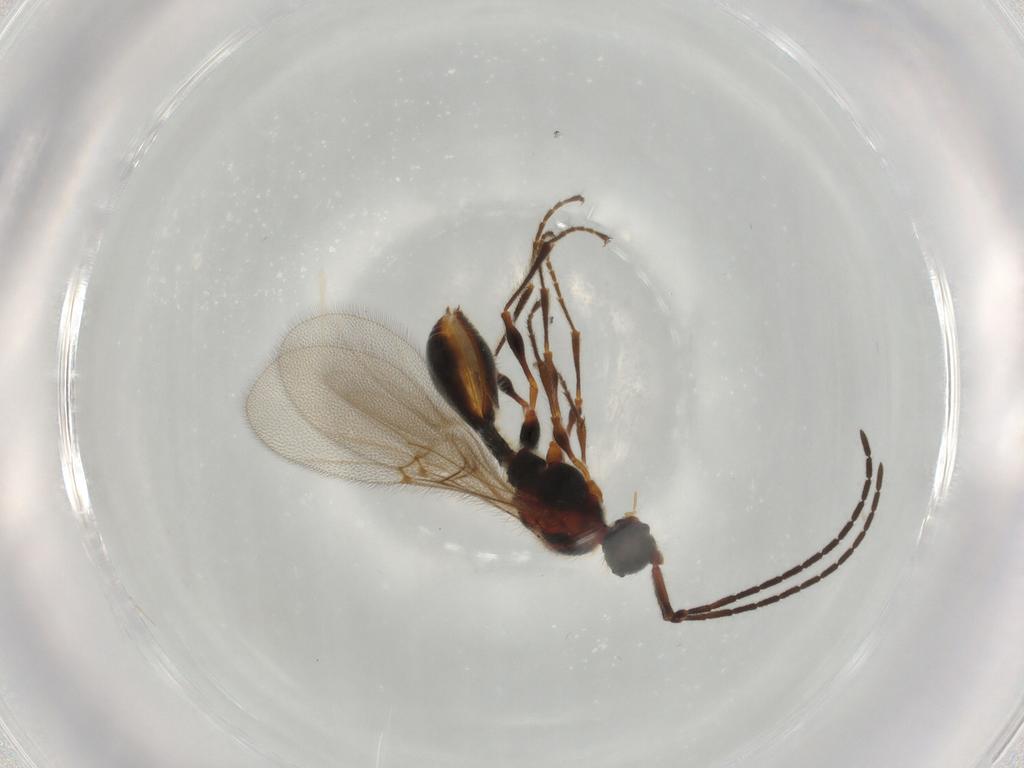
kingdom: Animalia
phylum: Arthropoda
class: Insecta
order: Hymenoptera
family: Diapriidae
